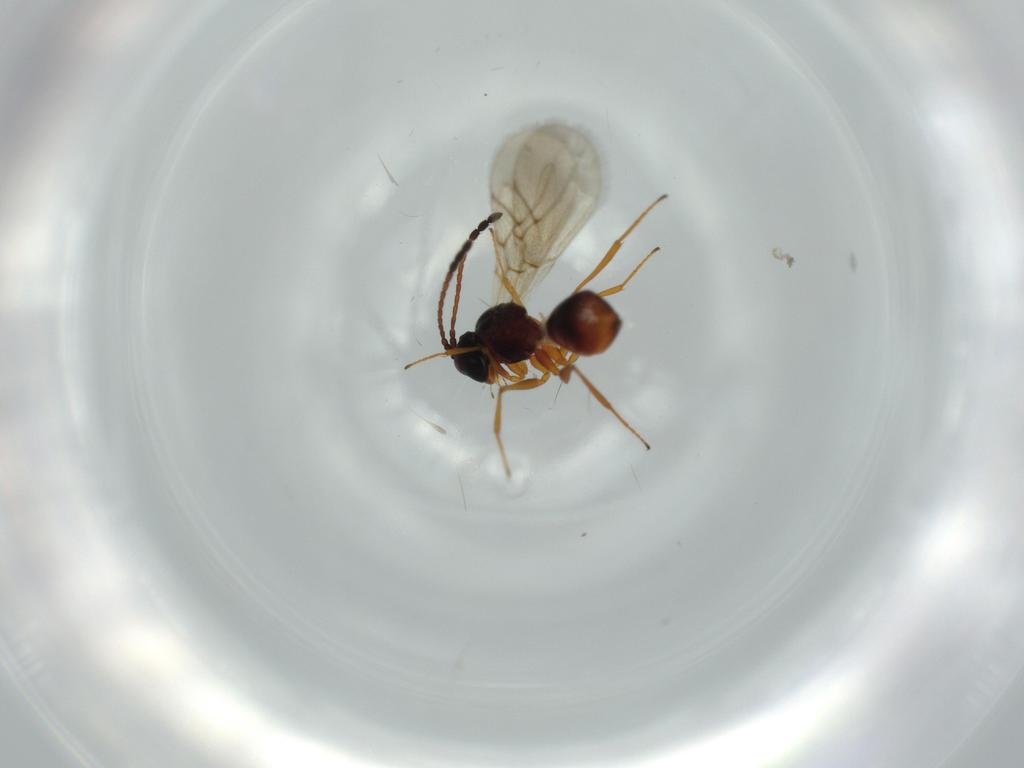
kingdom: Animalia
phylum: Arthropoda
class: Insecta
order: Hymenoptera
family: Figitidae
